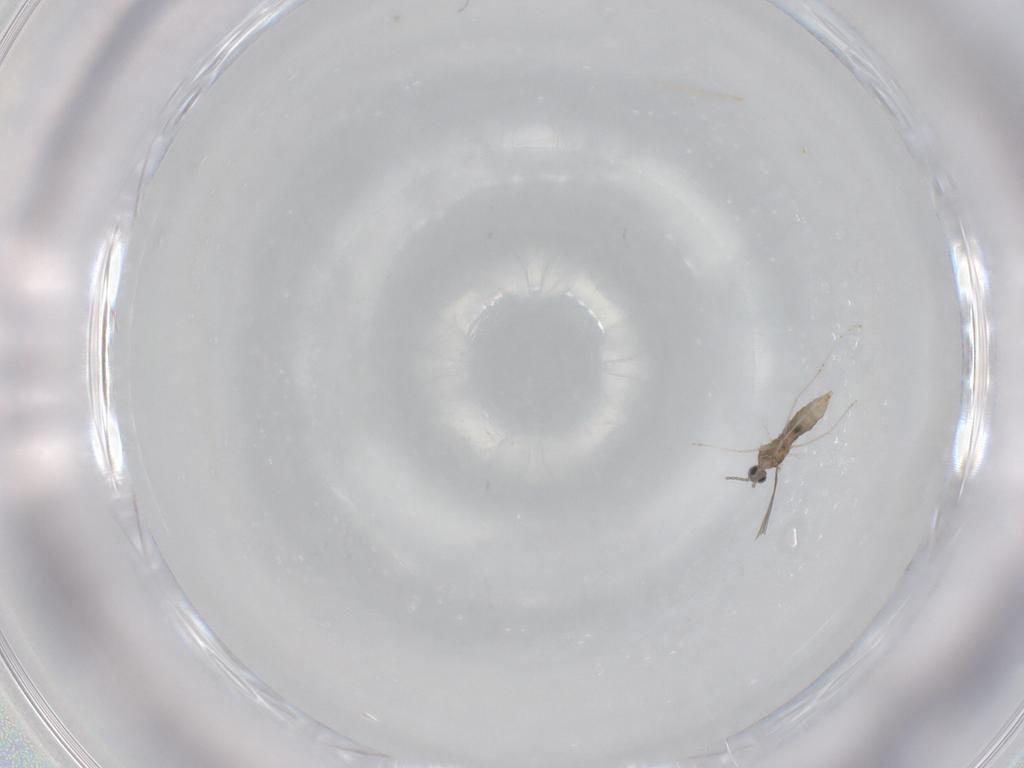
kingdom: Animalia
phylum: Arthropoda
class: Insecta
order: Diptera
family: Cecidomyiidae
